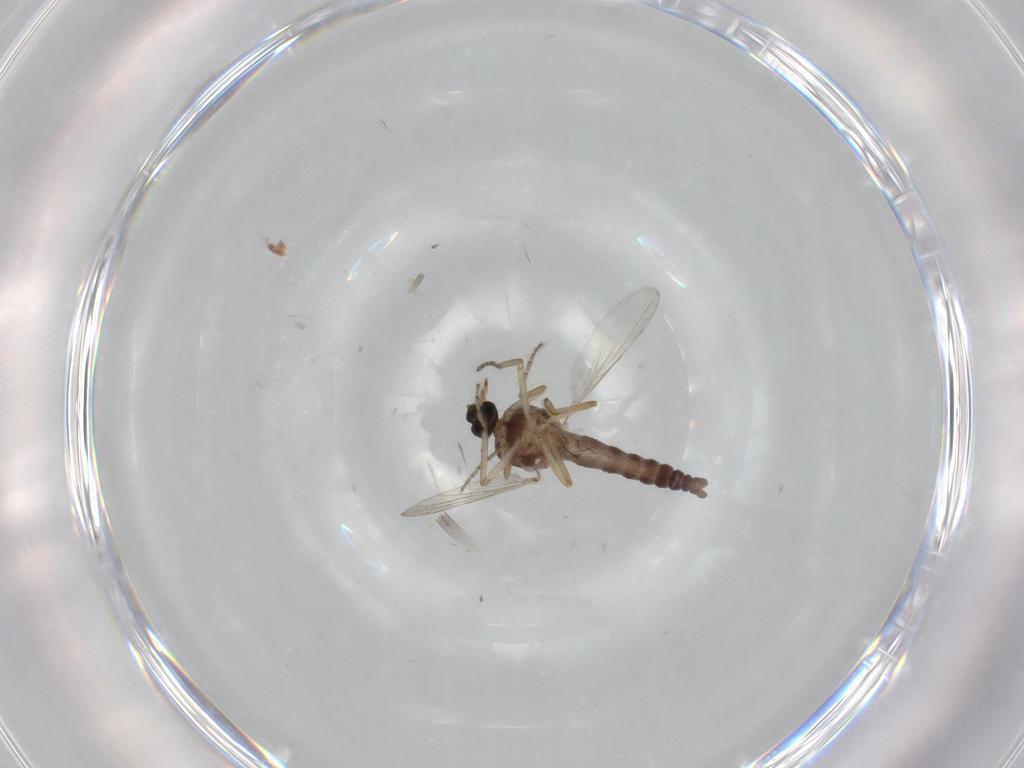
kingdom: Animalia
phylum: Arthropoda
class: Insecta
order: Diptera
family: Ceratopogonidae
